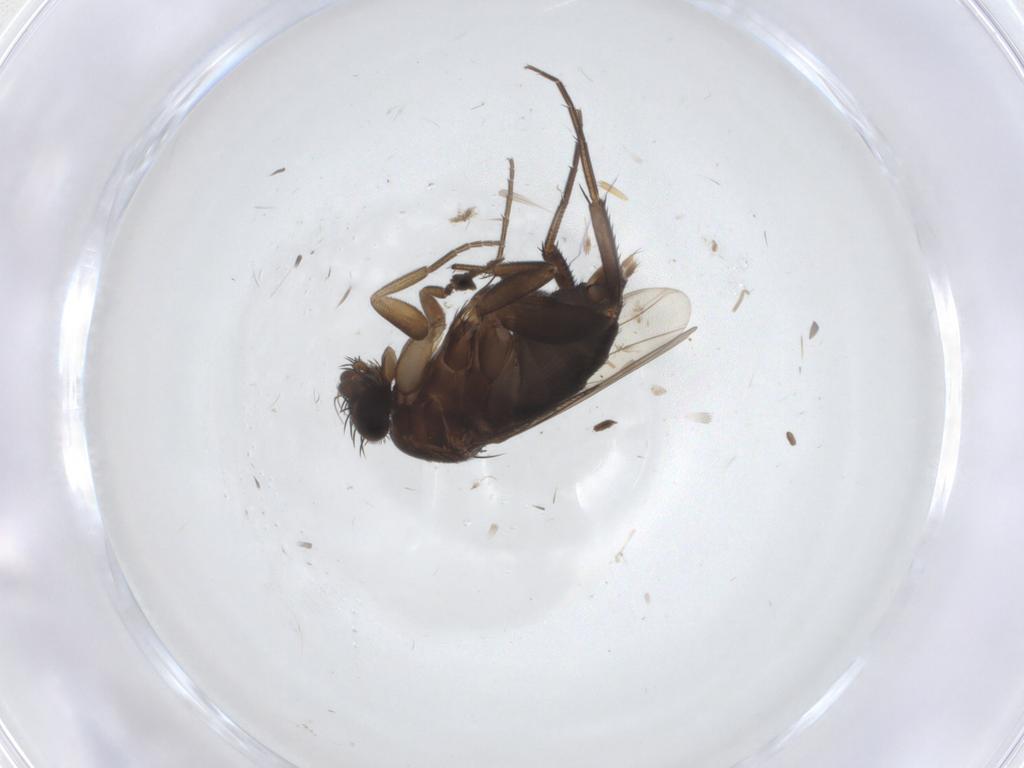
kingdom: Animalia
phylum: Arthropoda
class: Insecta
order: Diptera
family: Phoridae
